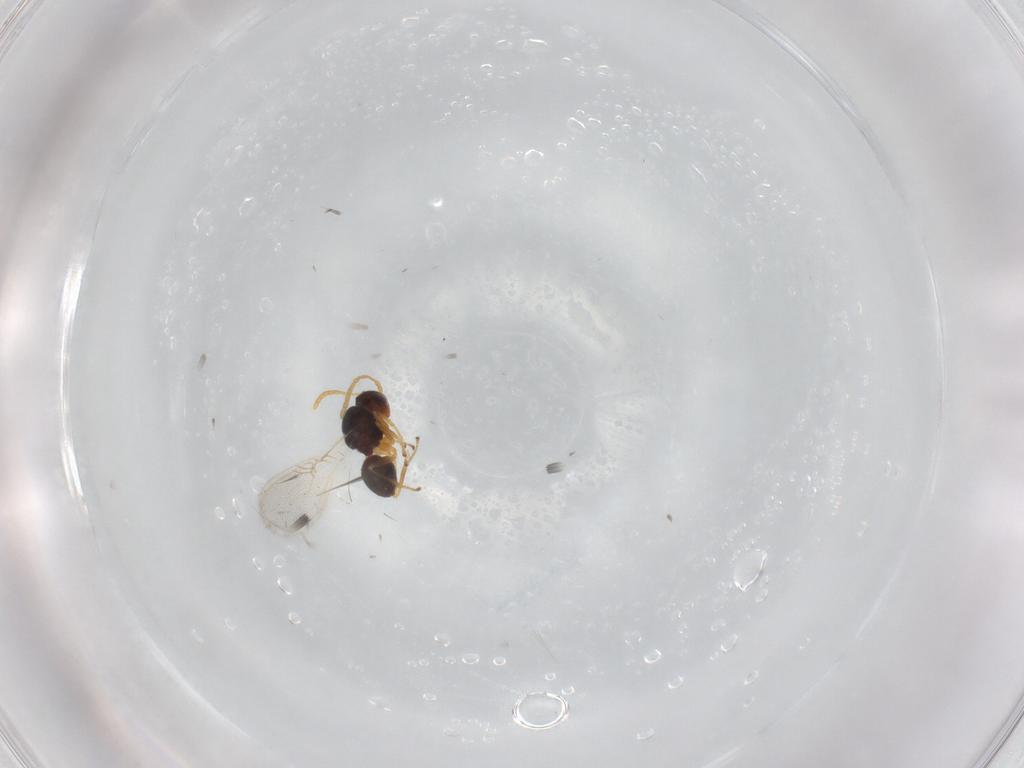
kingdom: Animalia
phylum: Arthropoda
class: Insecta
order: Hymenoptera
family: Figitidae
